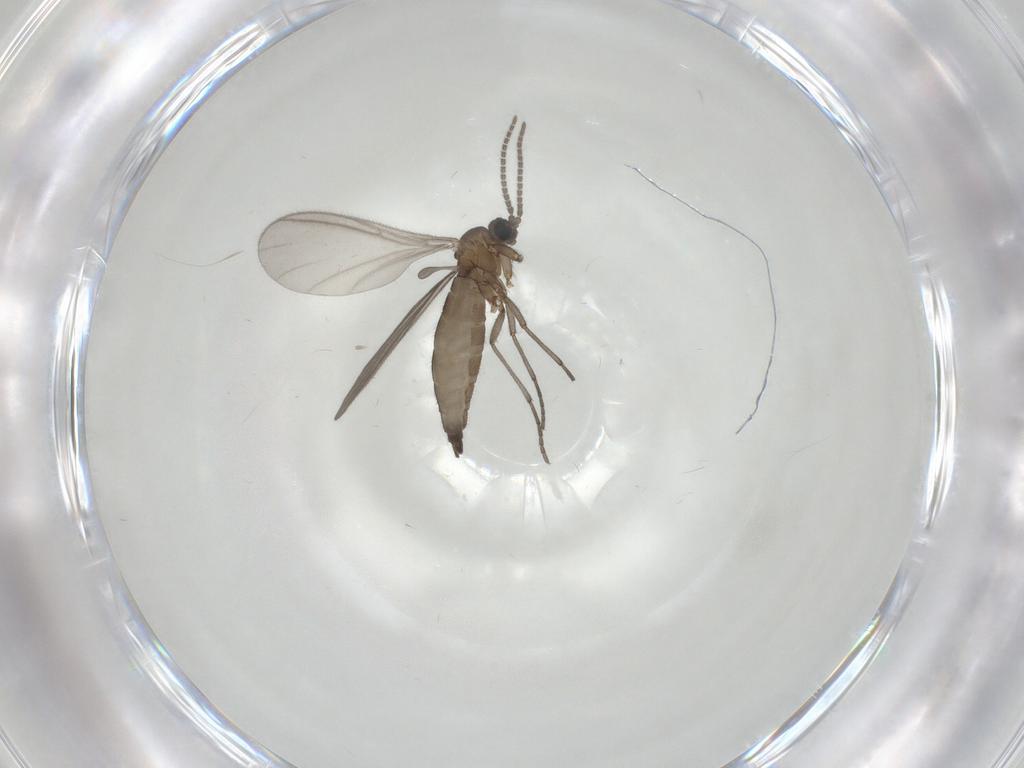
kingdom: Animalia
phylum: Arthropoda
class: Insecta
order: Diptera
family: Sciaridae
